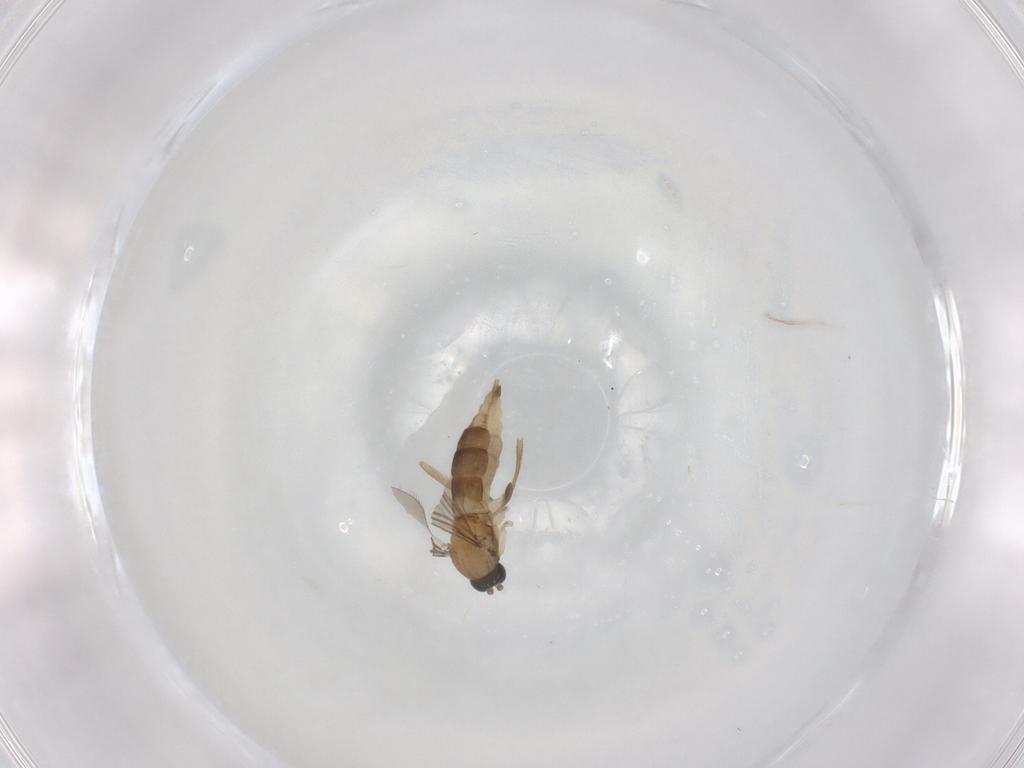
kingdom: Animalia
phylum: Arthropoda
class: Insecta
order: Diptera
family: Sciaridae
